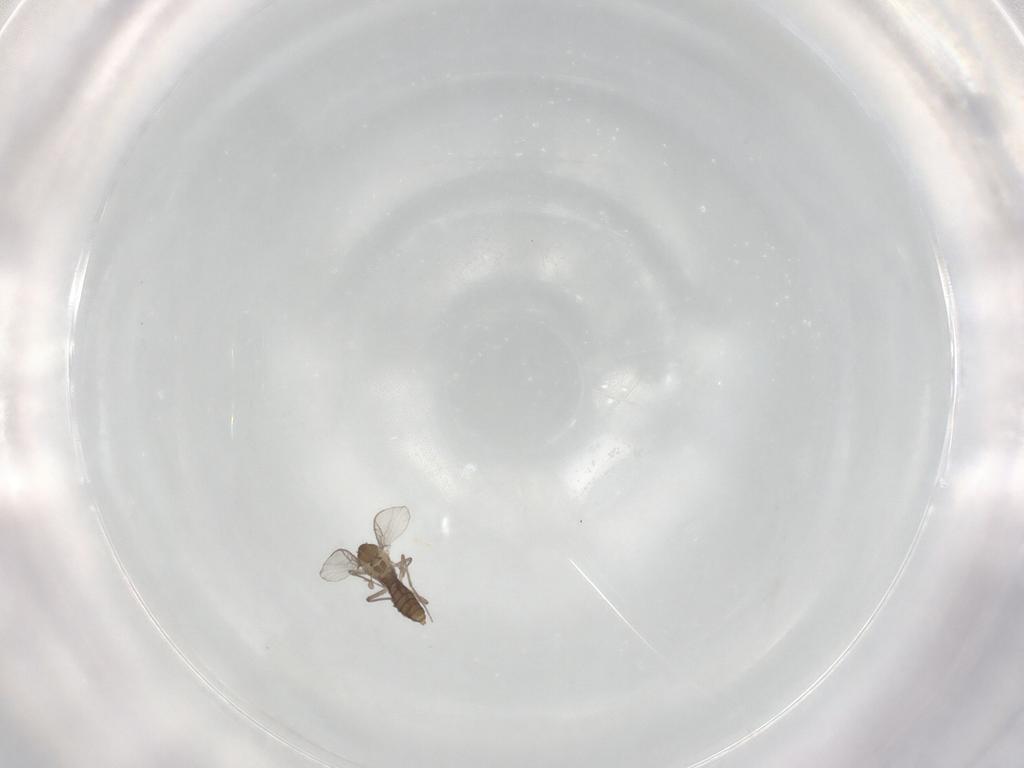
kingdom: Animalia
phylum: Arthropoda
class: Insecta
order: Diptera
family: Chironomidae
